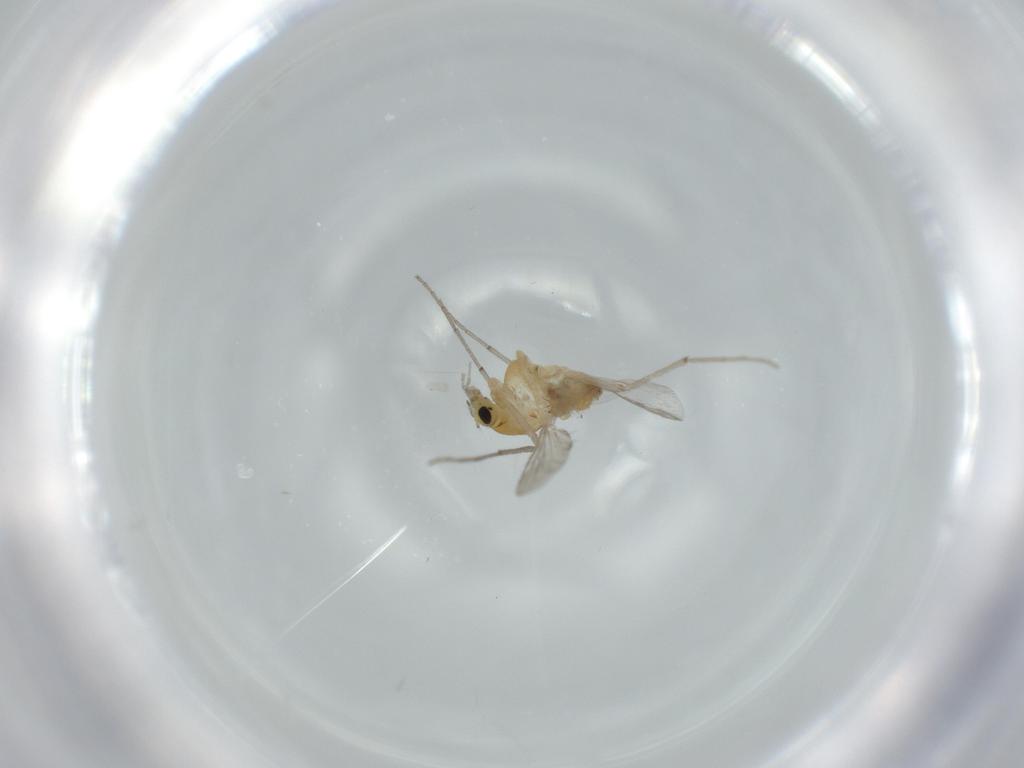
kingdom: Animalia
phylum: Arthropoda
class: Insecta
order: Diptera
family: Chironomidae
